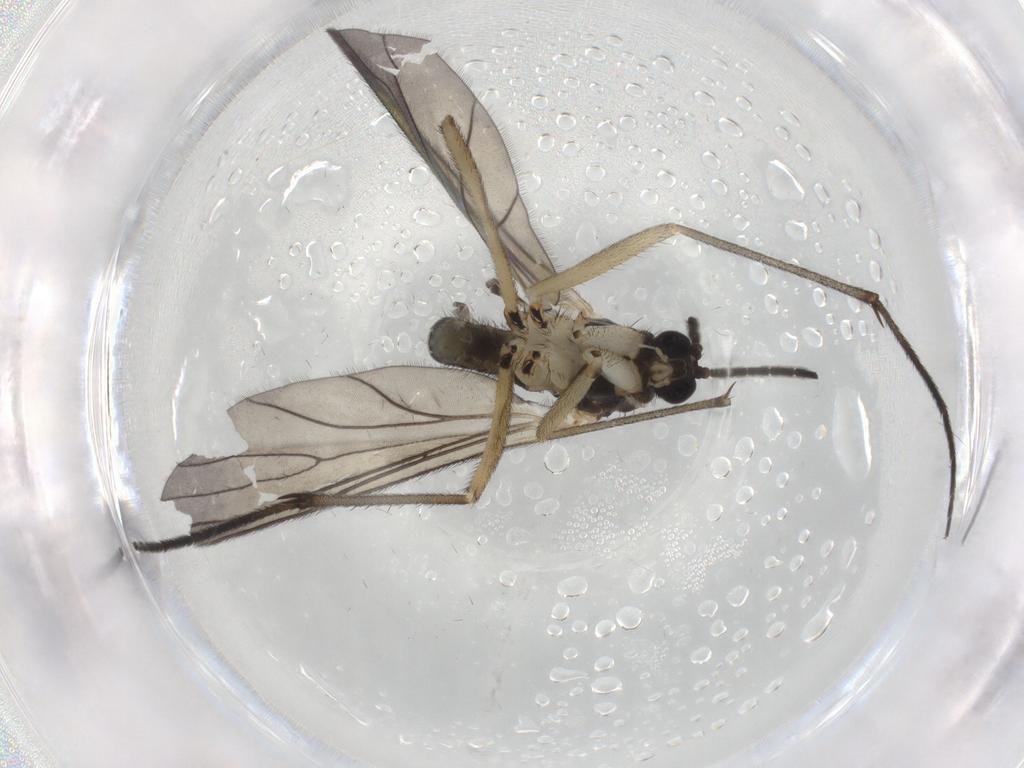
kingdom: Animalia
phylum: Arthropoda
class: Insecta
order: Diptera
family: Sciaridae
